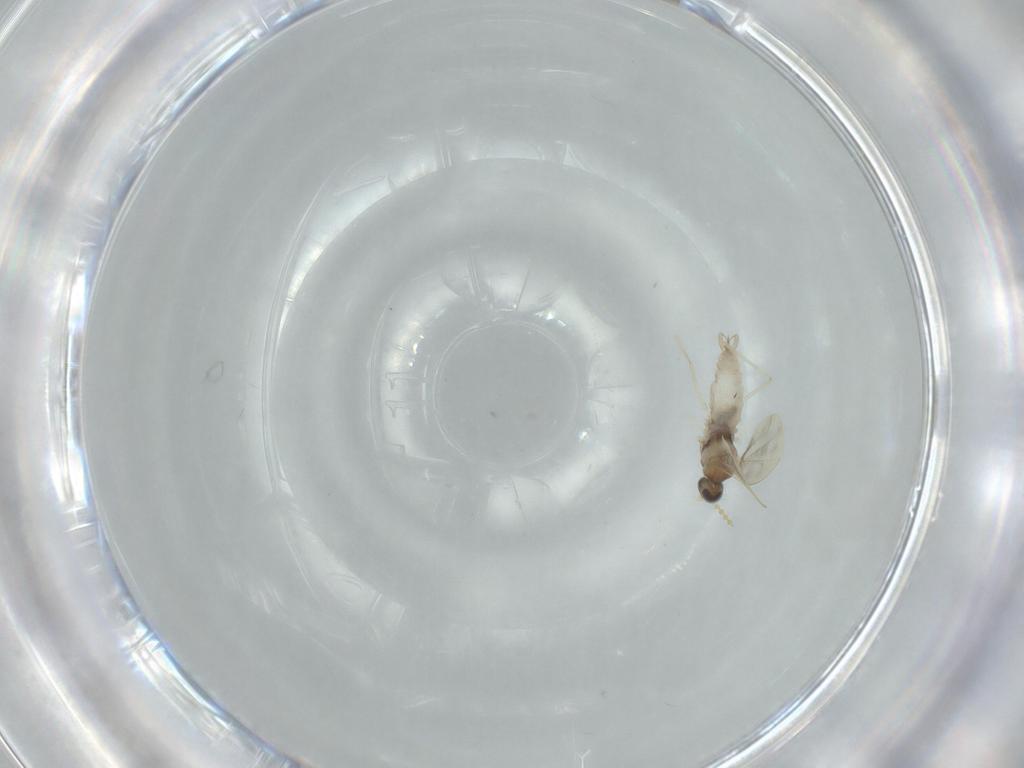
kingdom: Animalia
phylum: Arthropoda
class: Insecta
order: Diptera
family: Cecidomyiidae
